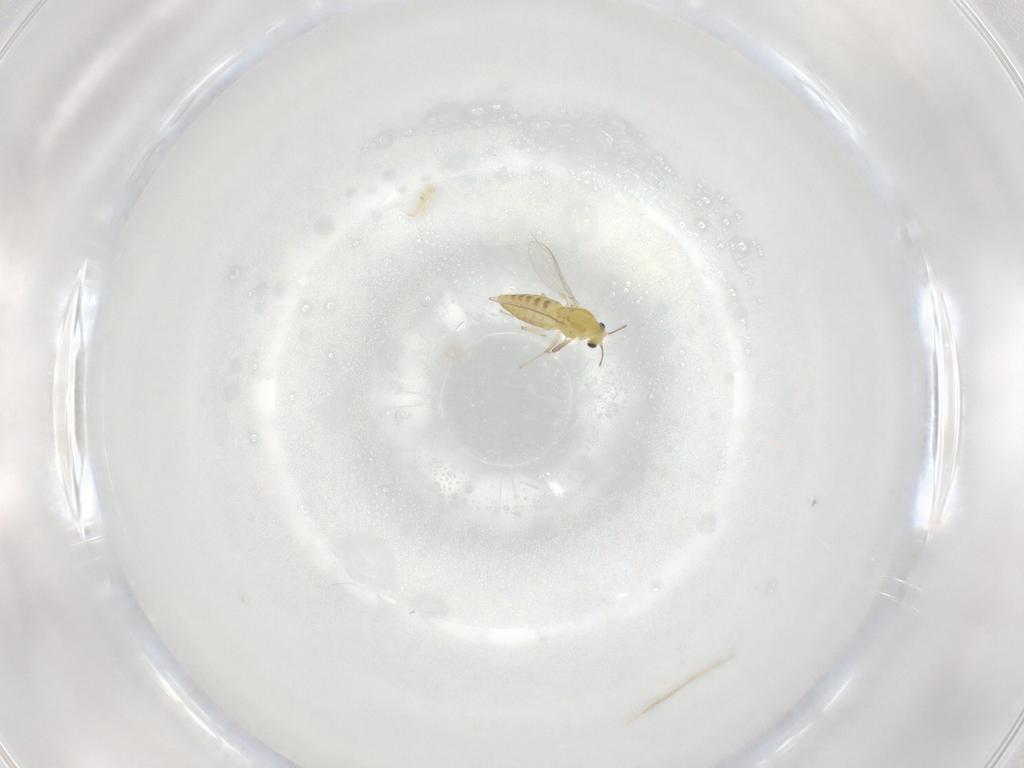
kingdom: Animalia
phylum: Arthropoda
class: Insecta
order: Diptera
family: Chironomidae
